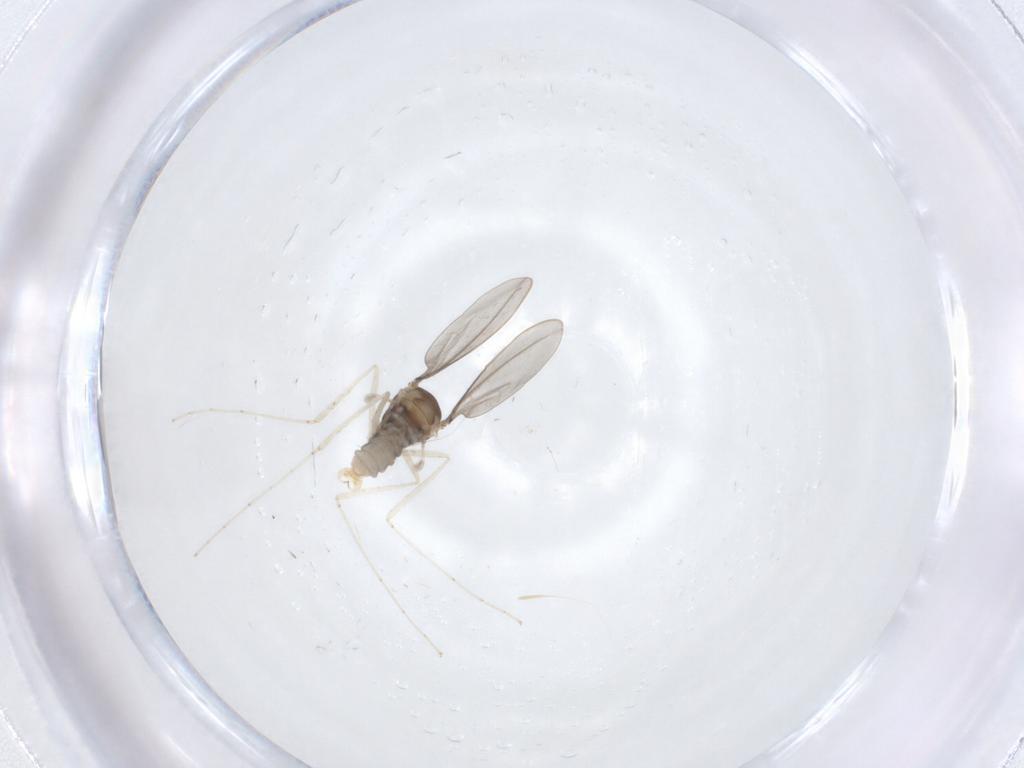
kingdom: Animalia
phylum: Arthropoda
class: Insecta
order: Diptera
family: Cecidomyiidae
